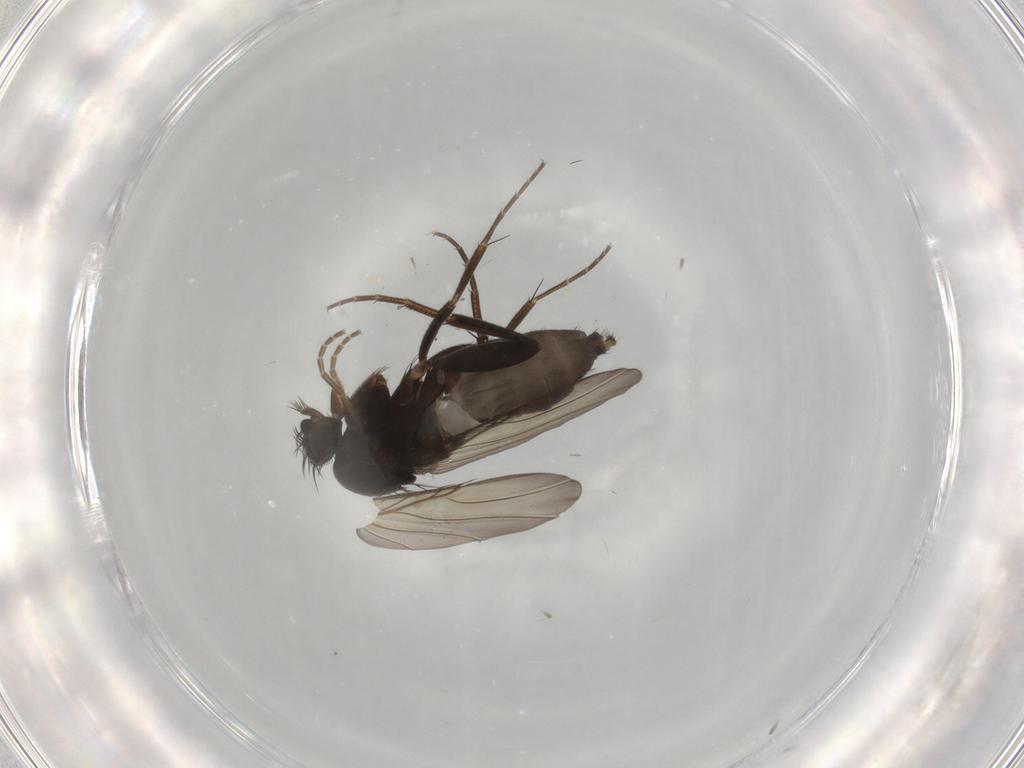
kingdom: Animalia
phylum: Arthropoda
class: Insecta
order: Diptera
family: Phoridae
